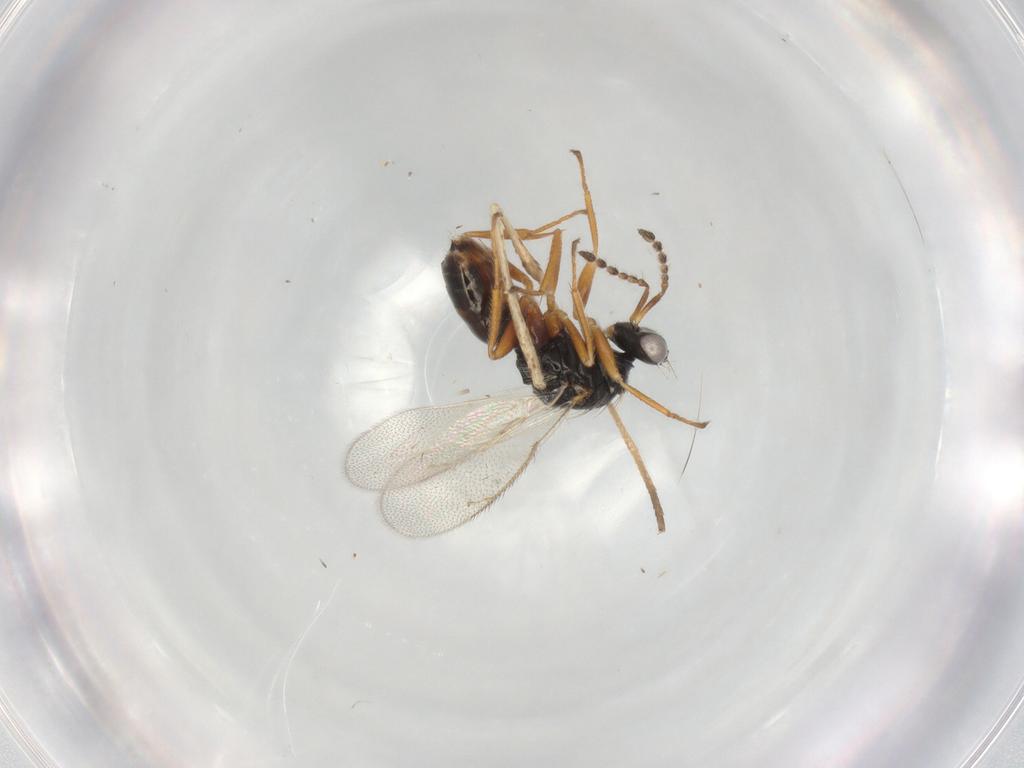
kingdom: Animalia
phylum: Arthropoda
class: Insecta
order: Hymenoptera
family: Eulophidae
